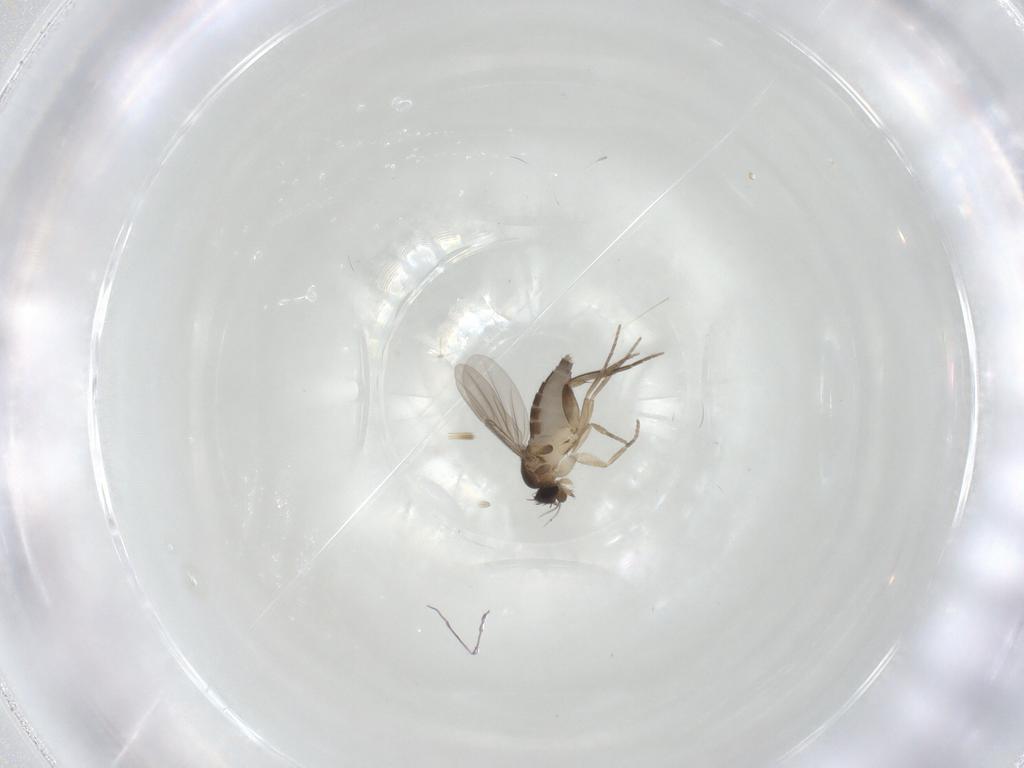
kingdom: Animalia
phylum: Arthropoda
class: Insecta
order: Diptera
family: Phoridae
